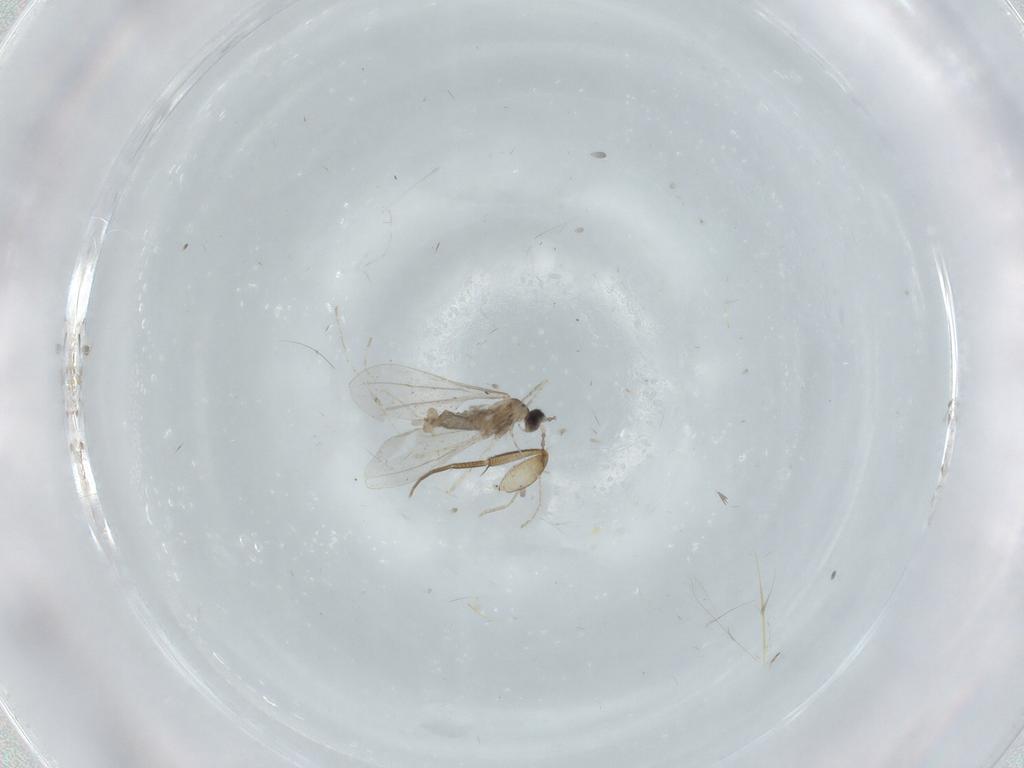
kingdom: Animalia
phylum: Arthropoda
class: Insecta
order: Diptera
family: Cecidomyiidae
